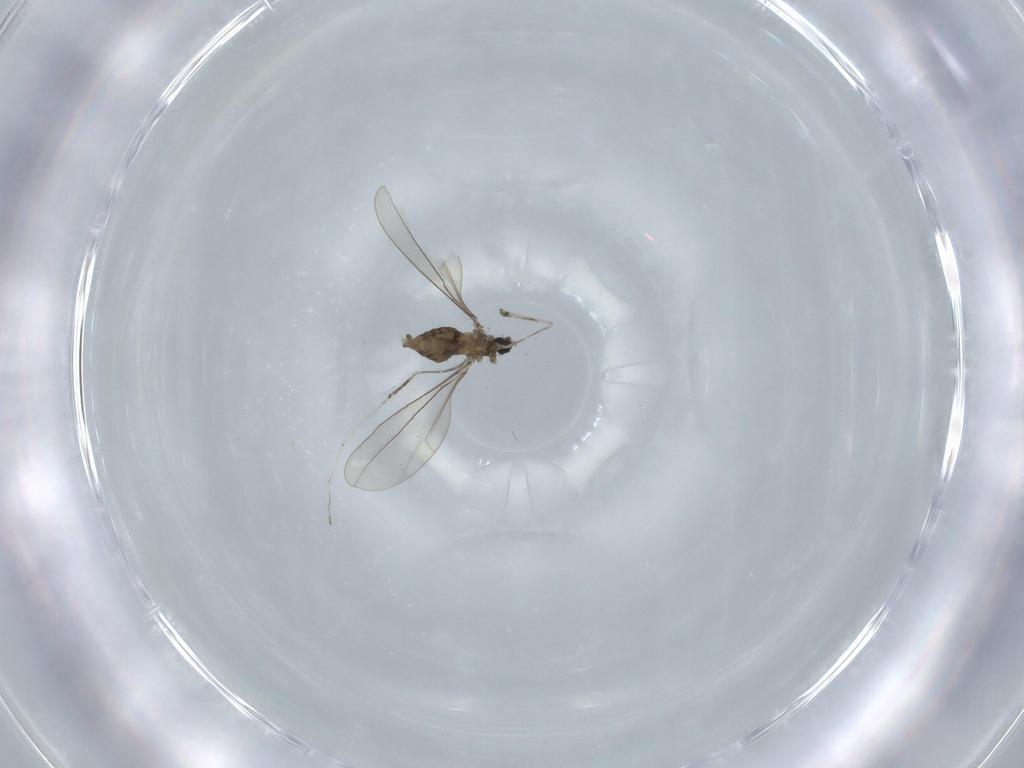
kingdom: Animalia
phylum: Arthropoda
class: Insecta
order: Diptera
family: Cecidomyiidae
